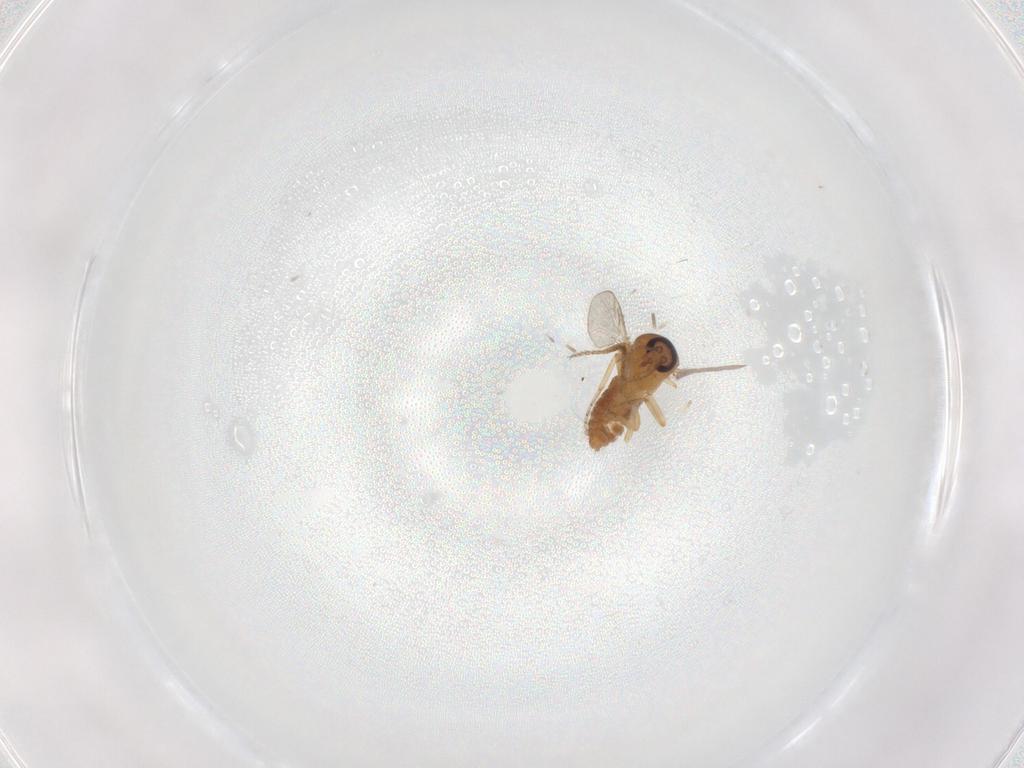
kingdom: Animalia
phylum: Arthropoda
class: Insecta
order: Diptera
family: Ceratopogonidae
